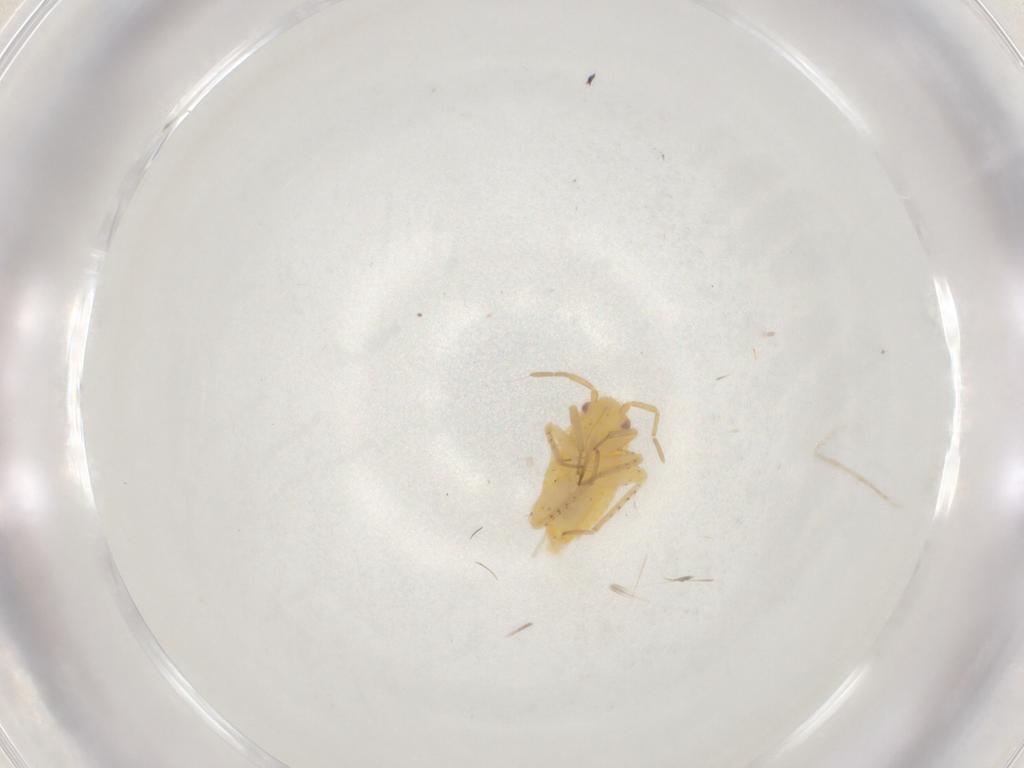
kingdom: Animalia
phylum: Arthropoda
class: Insecta
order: Hymenoptera
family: Braconidae
